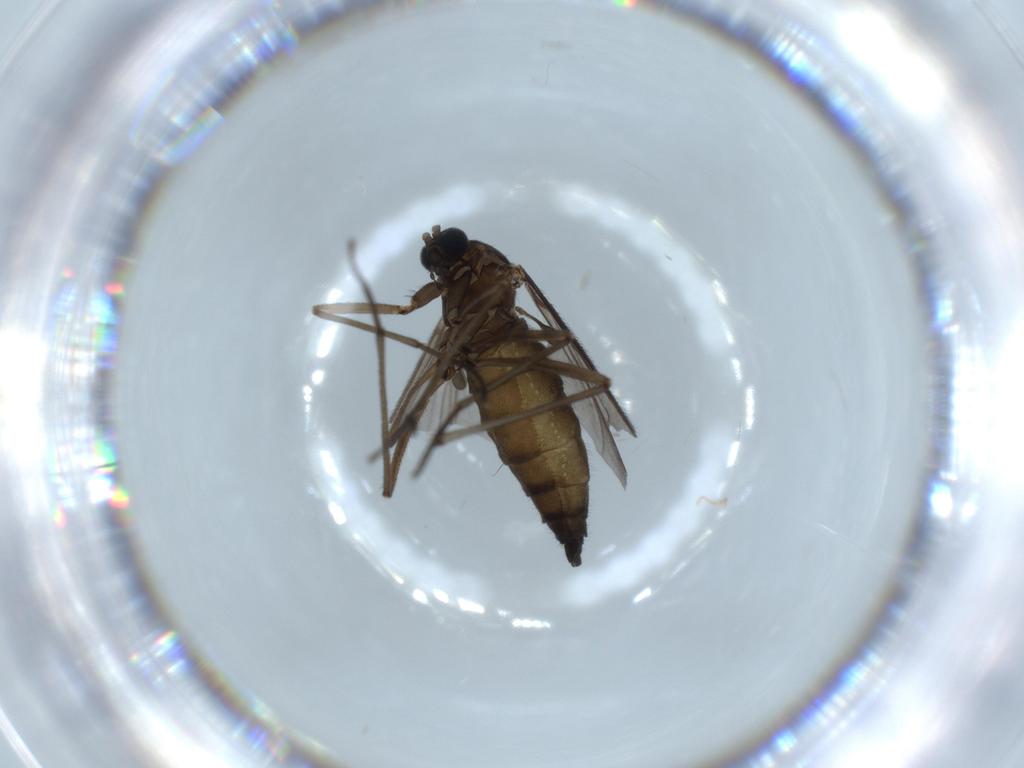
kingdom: Animalia
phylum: Arthropoda
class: Insecta
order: Diptera
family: Sciaridae
